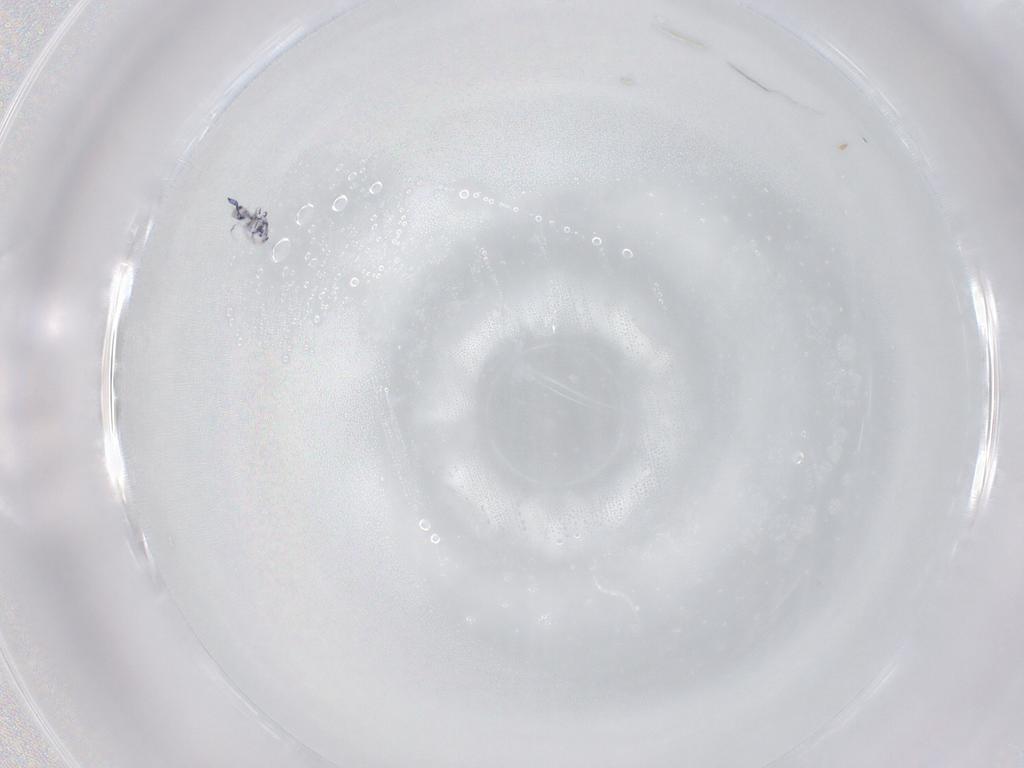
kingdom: Animalia
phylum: Arthropoda
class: Collembola
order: Entomobryomorpha
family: Entomobryidae
